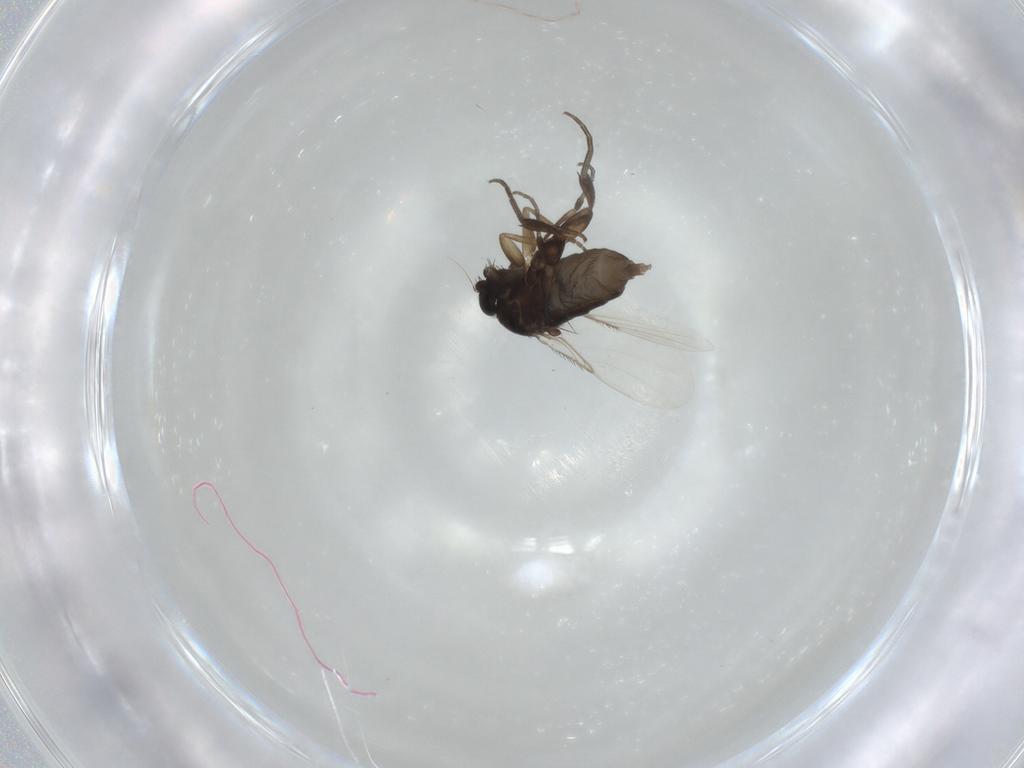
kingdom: Animalia
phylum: Arthropoda
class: Insecta
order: Diptera
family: Phoridae
